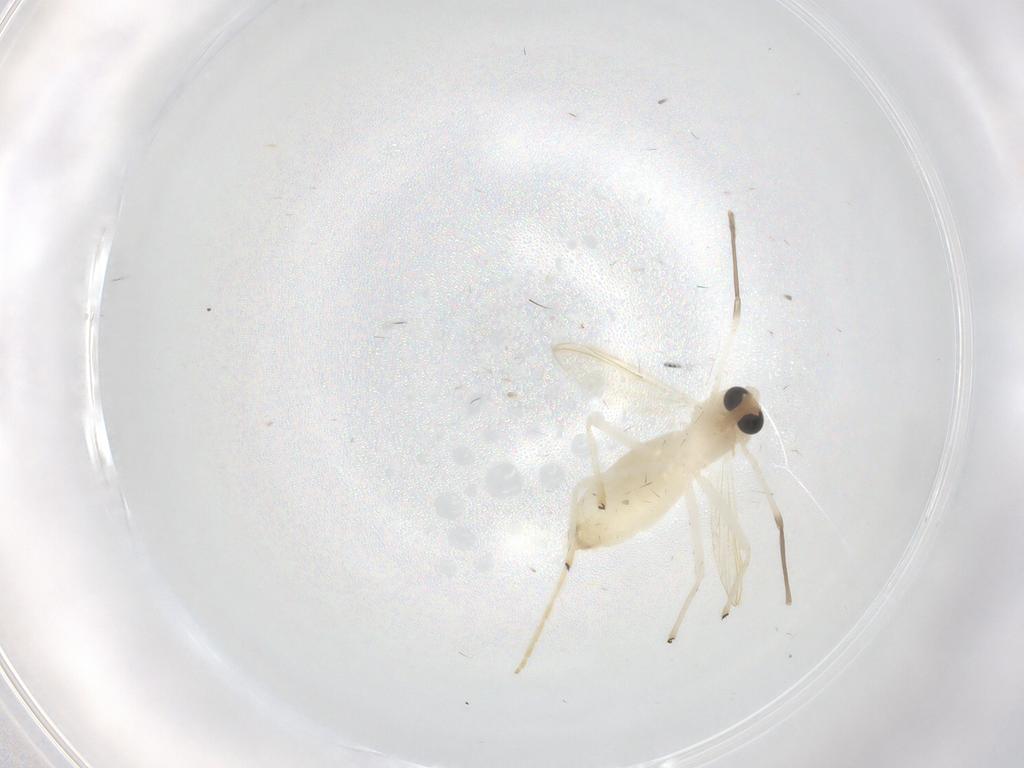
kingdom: Animalia
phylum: Arthropoda
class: Insecta
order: Diptera
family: Chironomidae
